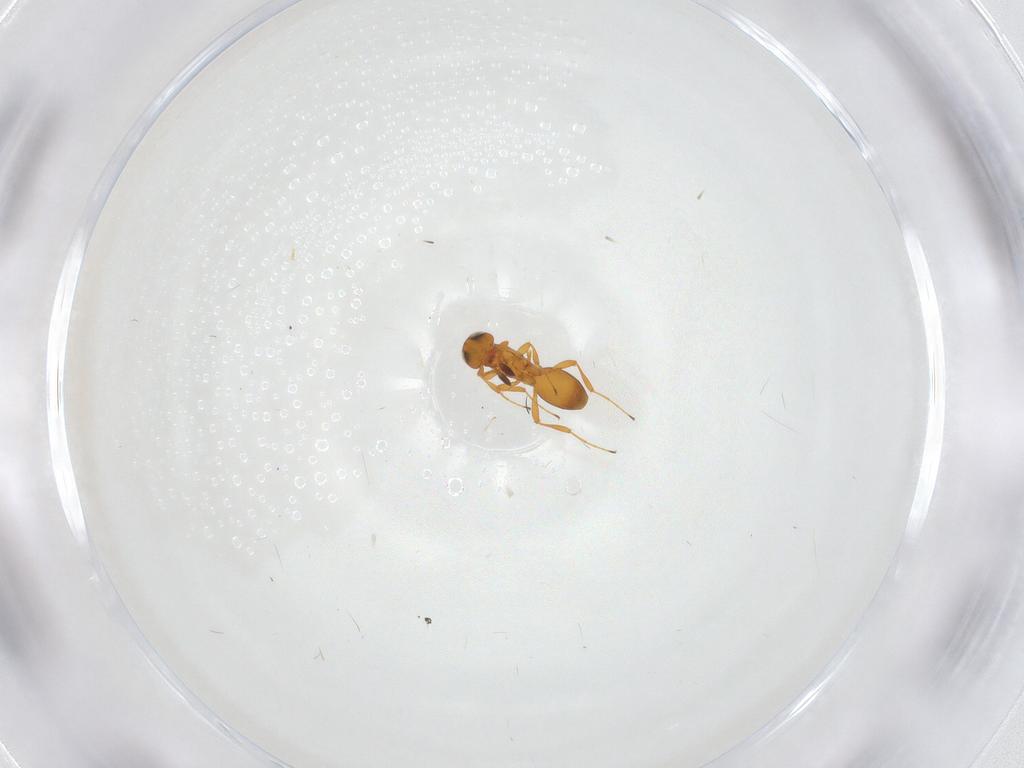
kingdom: Animalia
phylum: Arthropoda
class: Insecta
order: Hymenoptera
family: Platygastridae
